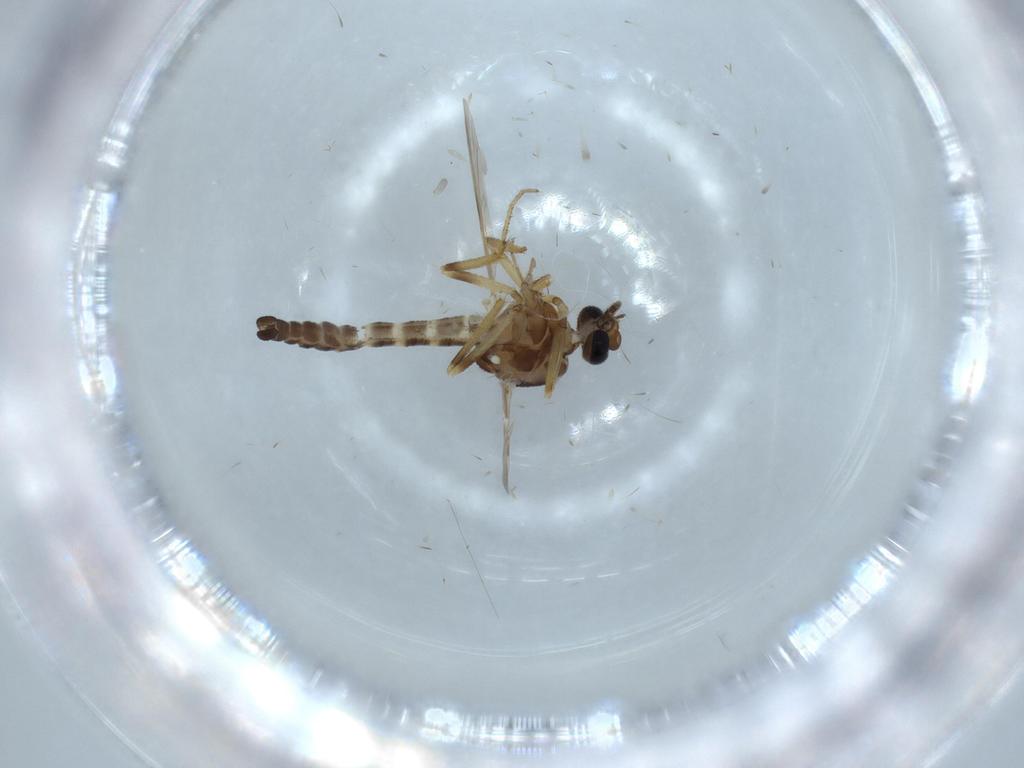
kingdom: Animalia
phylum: Arthropoda
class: Insecta
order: Diptera
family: Ceratopogonidae
